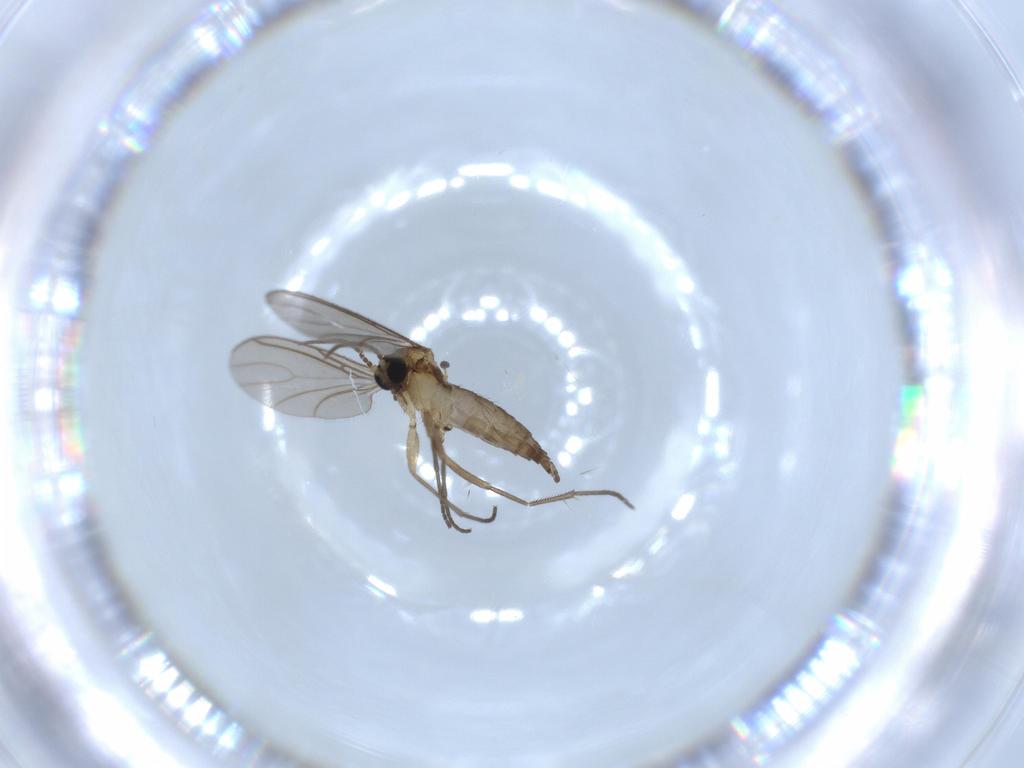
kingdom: Animalia
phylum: Arthropoda
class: Insecta
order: Diptera
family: Sciaridae
